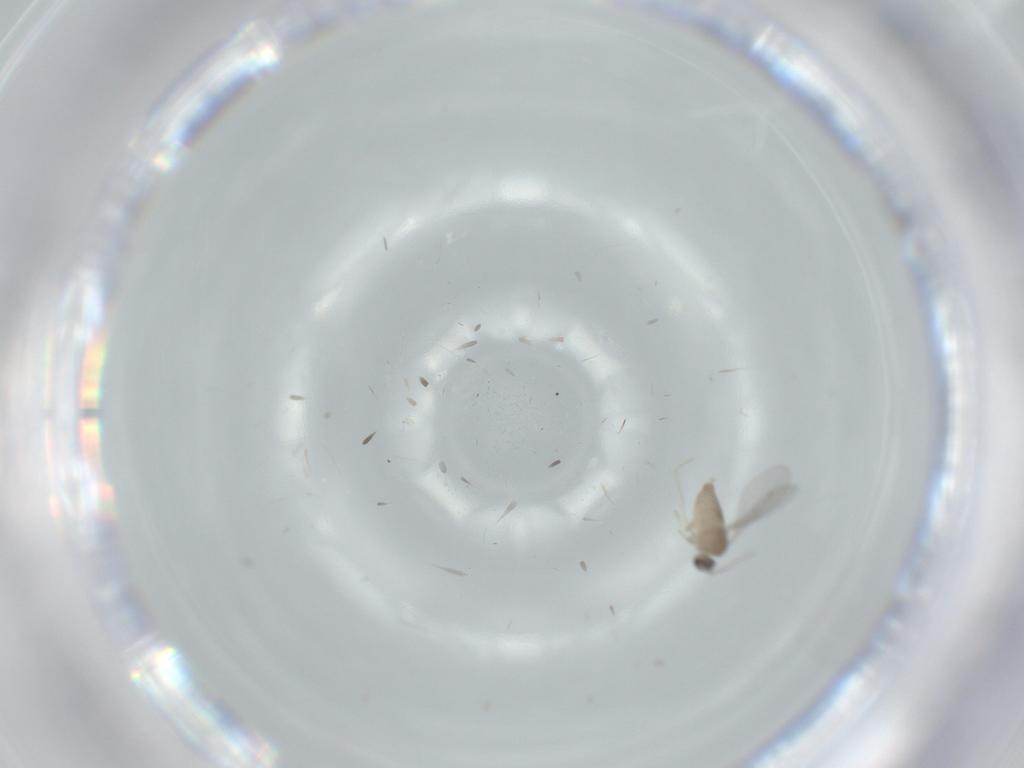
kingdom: Animalia
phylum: Arthropoda
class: Insecta
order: Diptera
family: Cecidomyiidae
